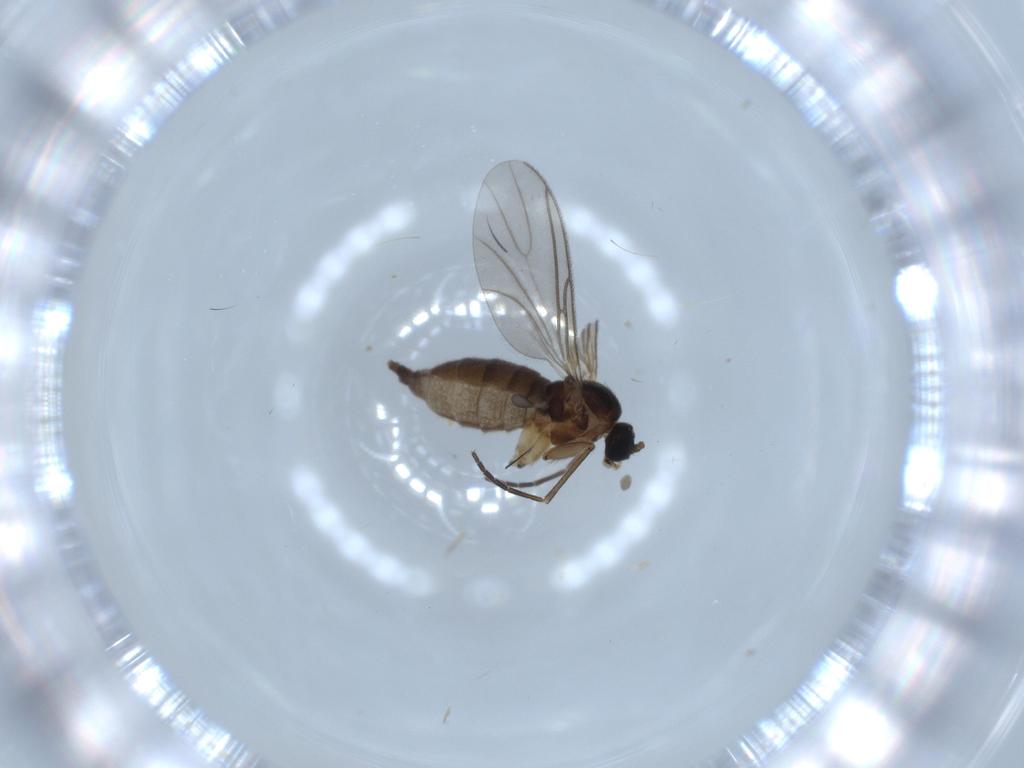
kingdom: Animalia
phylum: Arthropoda
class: Insecta
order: Diptera
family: Sciaridae
